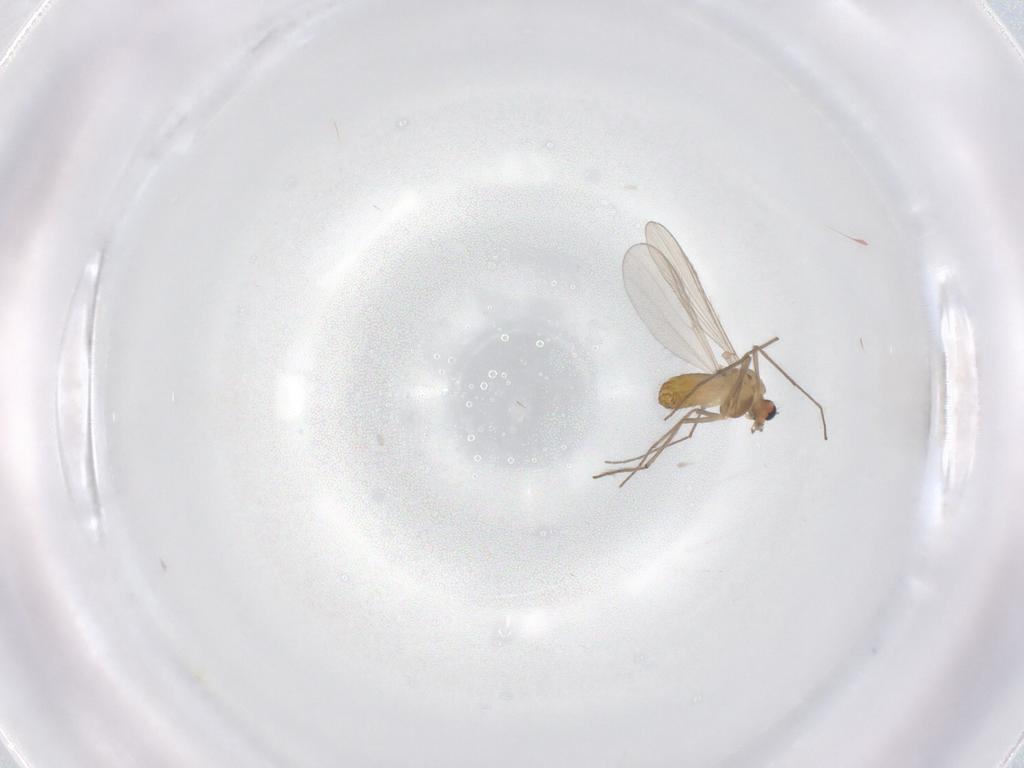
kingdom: Animalia
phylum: Arthropoda
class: Insecta
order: Diptera
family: Chironomidae
